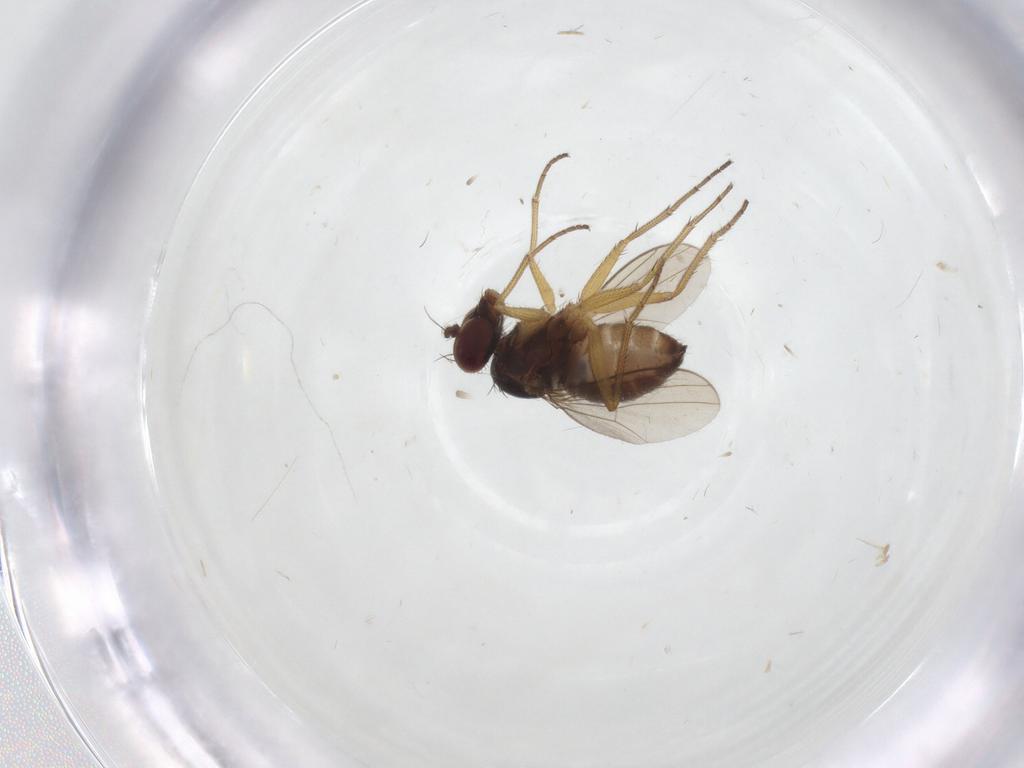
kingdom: Animalia
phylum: Arthropoda
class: Insecta
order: Diptera
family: Dolichopodidae
